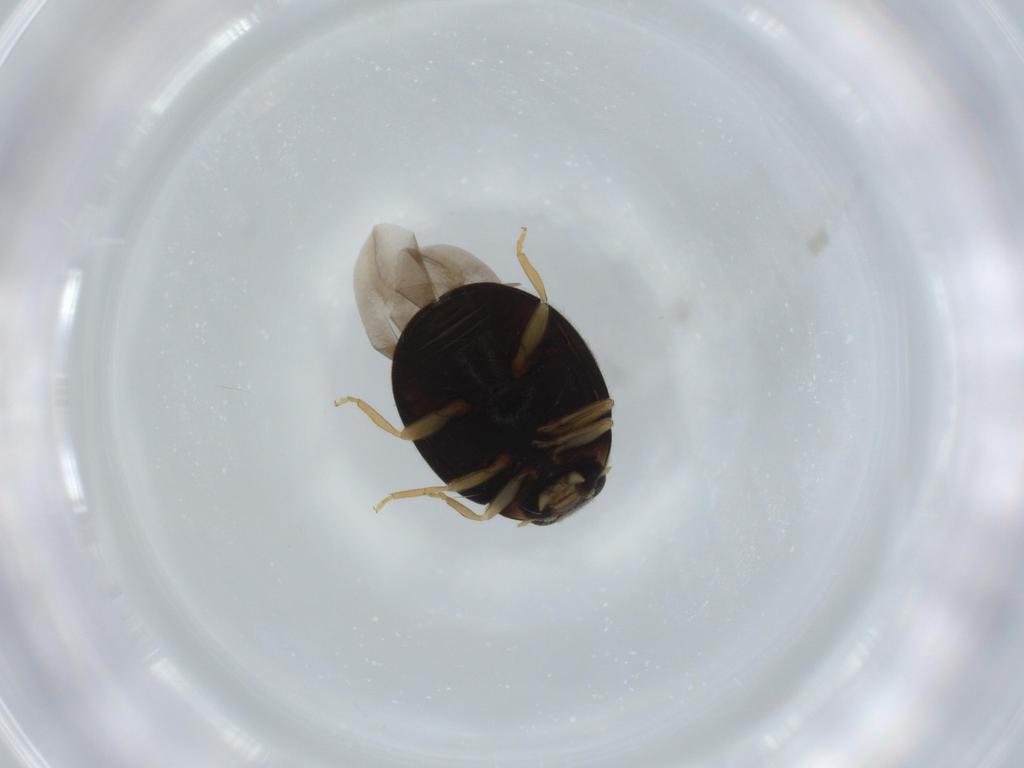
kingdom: Animalia
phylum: Arthropoda
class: Insecta
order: Coleoptera
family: Coccinellidae
